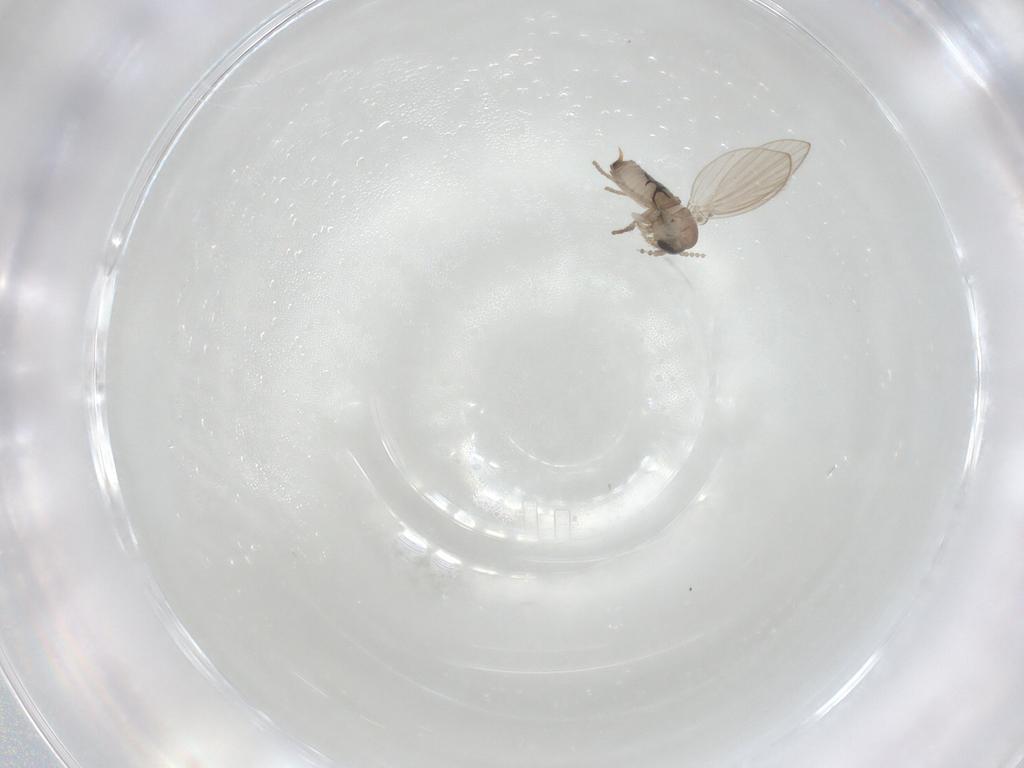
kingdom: Animalia
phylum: Arthropoda
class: Insecta
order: Diptera
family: Psychodidae
